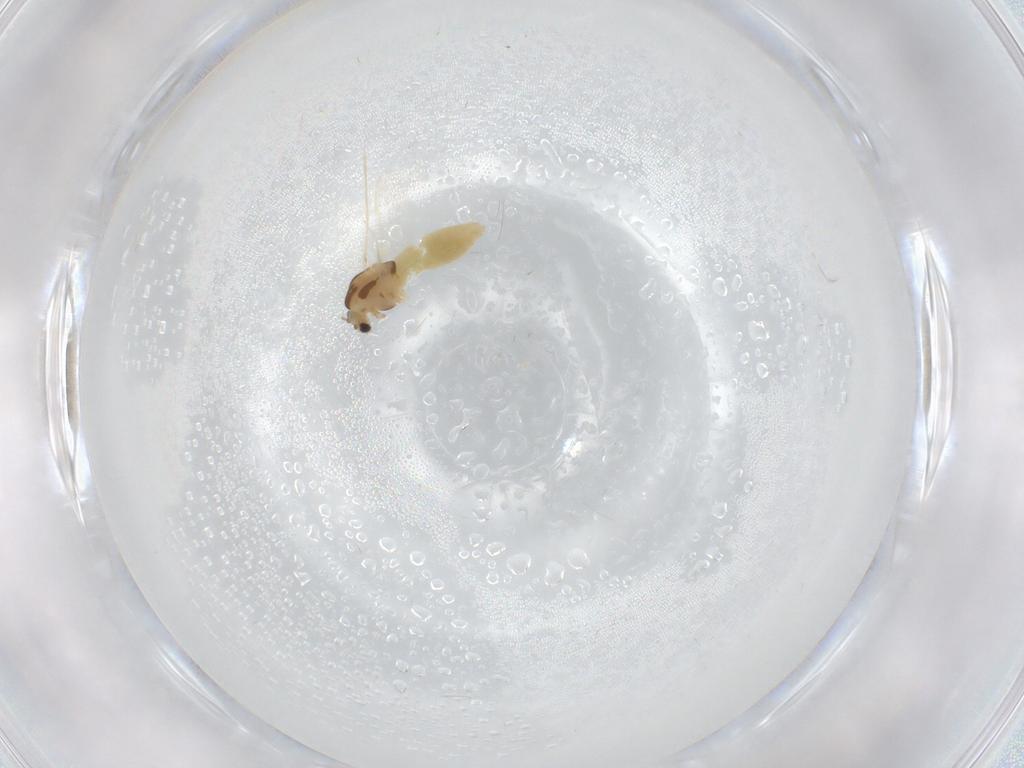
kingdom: Animalia
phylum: Arthropoda
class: Insecta
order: Diptera
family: Chironomidae
